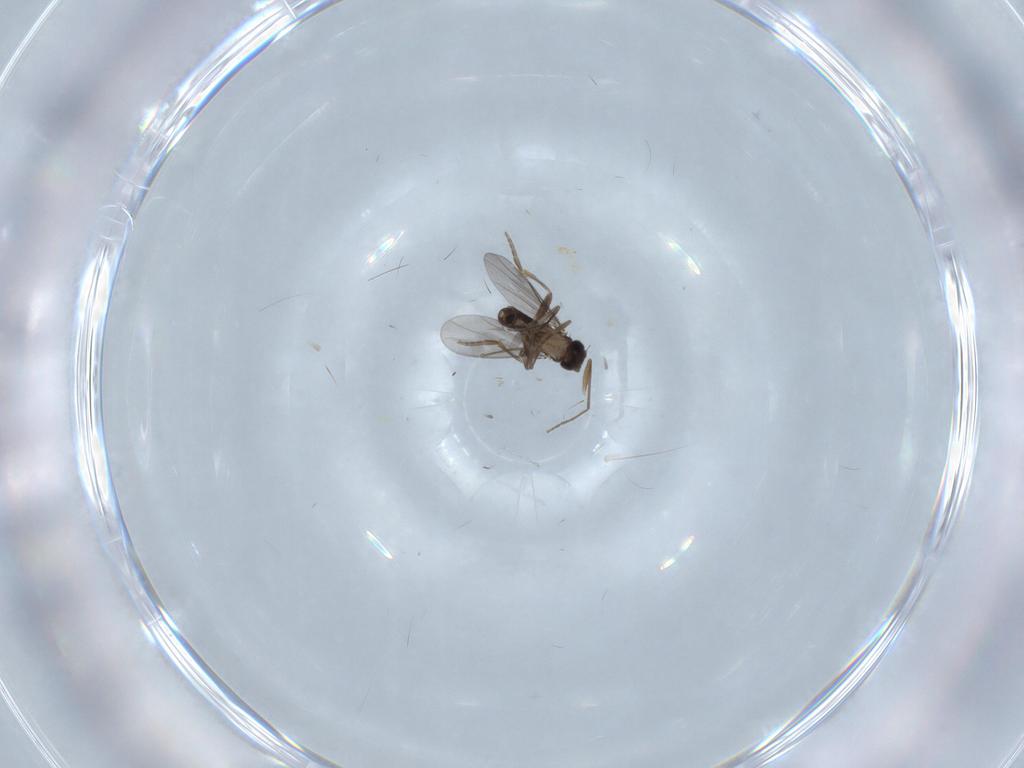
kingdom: Animalia
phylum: Arthropoda
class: Insecta
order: Diptera
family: Ceratopogonidae
